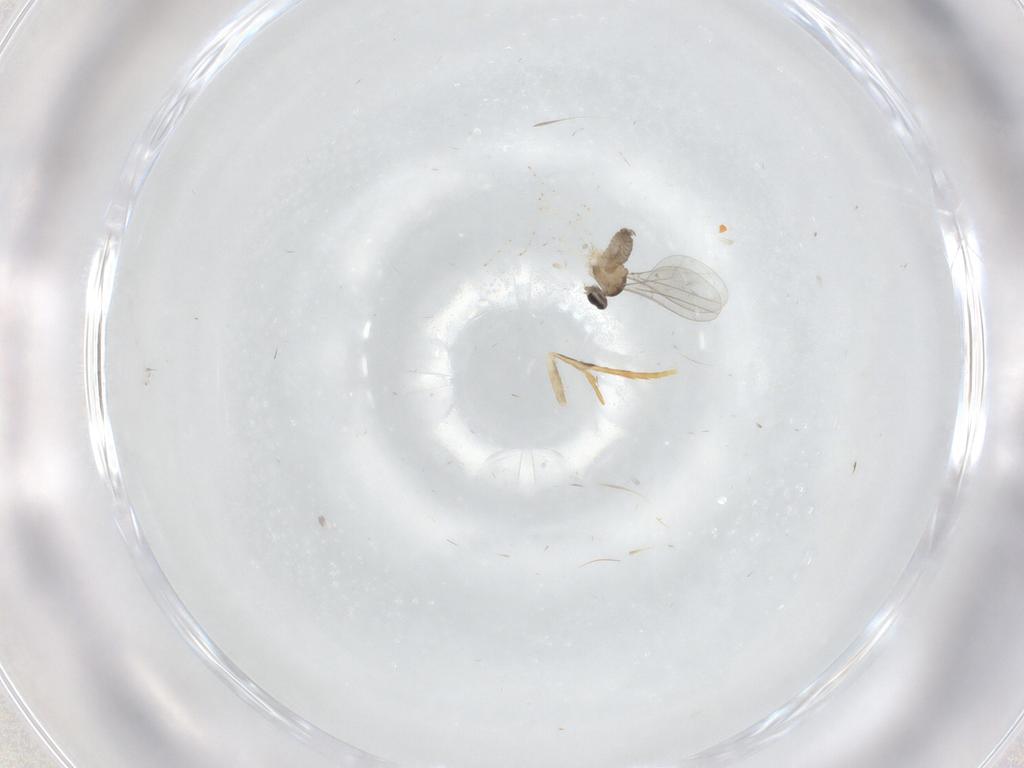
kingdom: Animalia
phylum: Arthropoda
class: Insecta
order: Diptera
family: Cecidomyiidae
